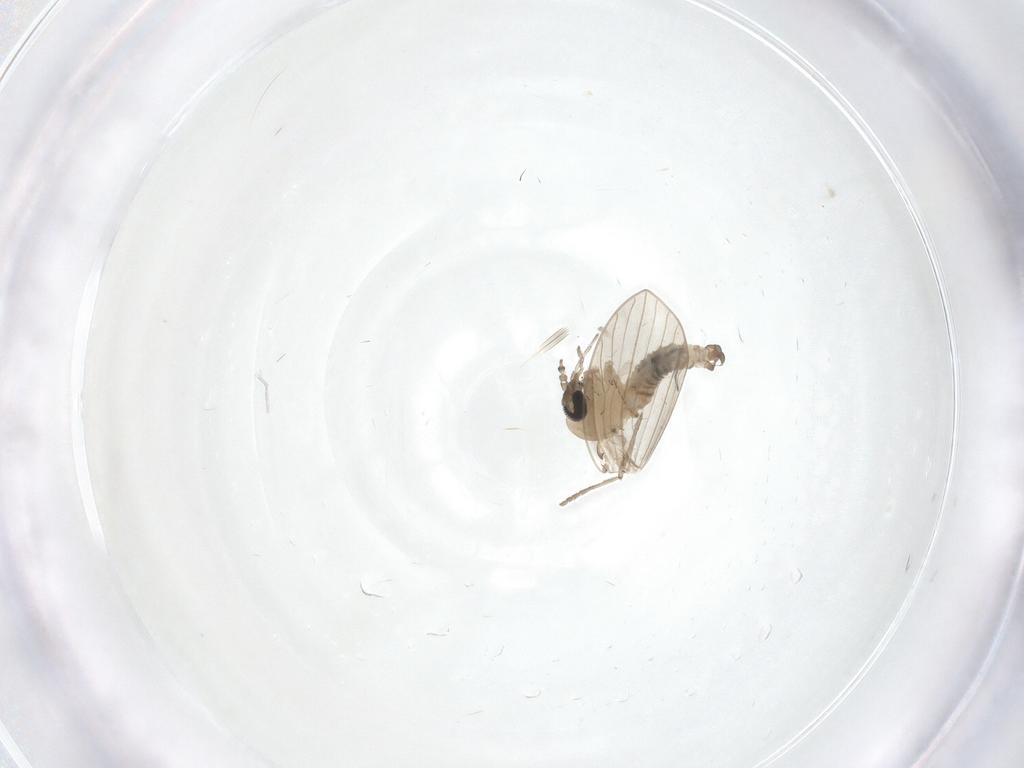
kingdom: Animalia
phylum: Arthropoda
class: Insecta
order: Diptera
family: Psychodidae
